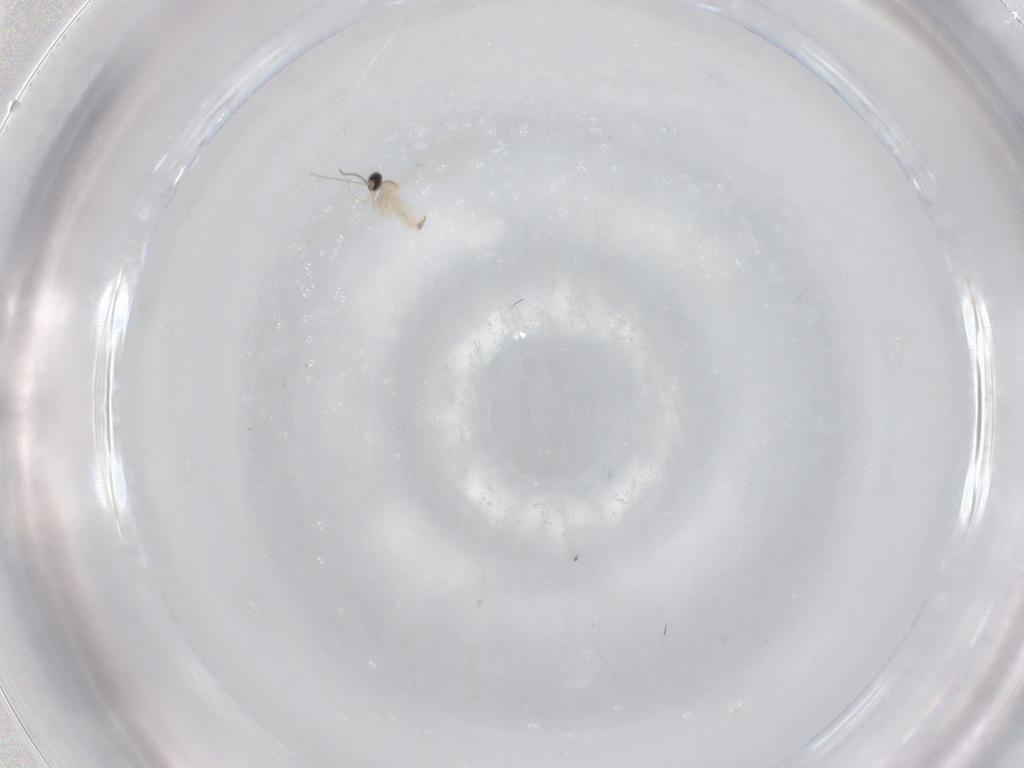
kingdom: Animalia
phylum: Arthropoda
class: Insecta
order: Diptera
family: Cecidomyiidae
